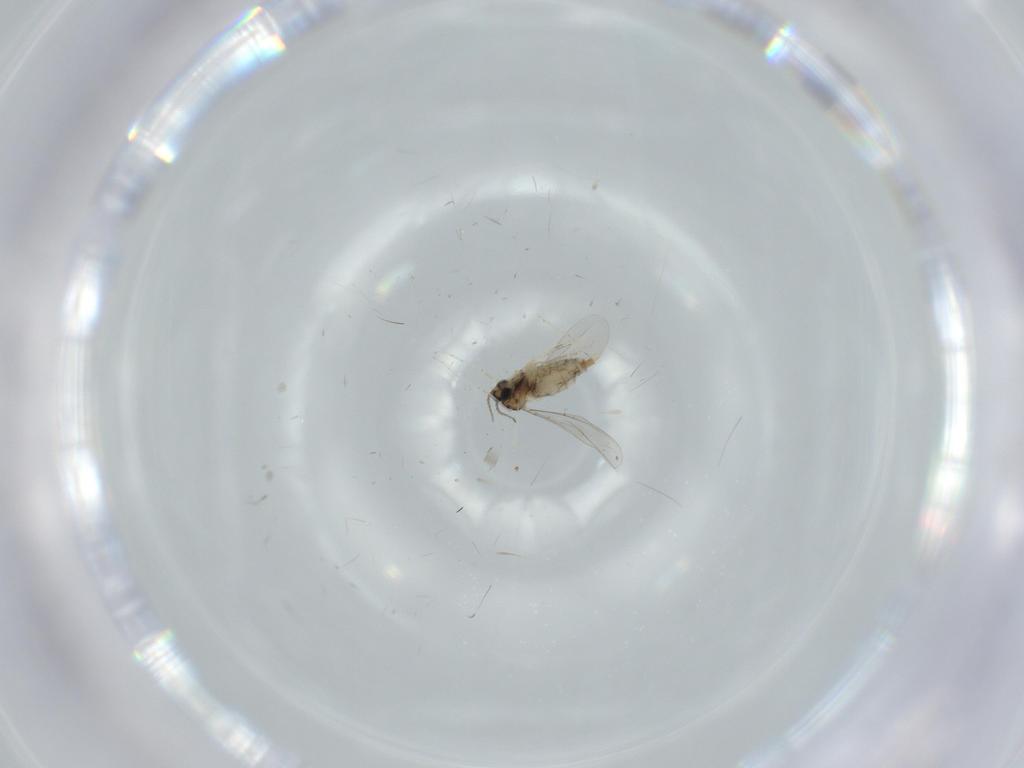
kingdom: Animalia
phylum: Arthropoda
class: Insecta
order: Diptera
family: Cecidomyiidae
